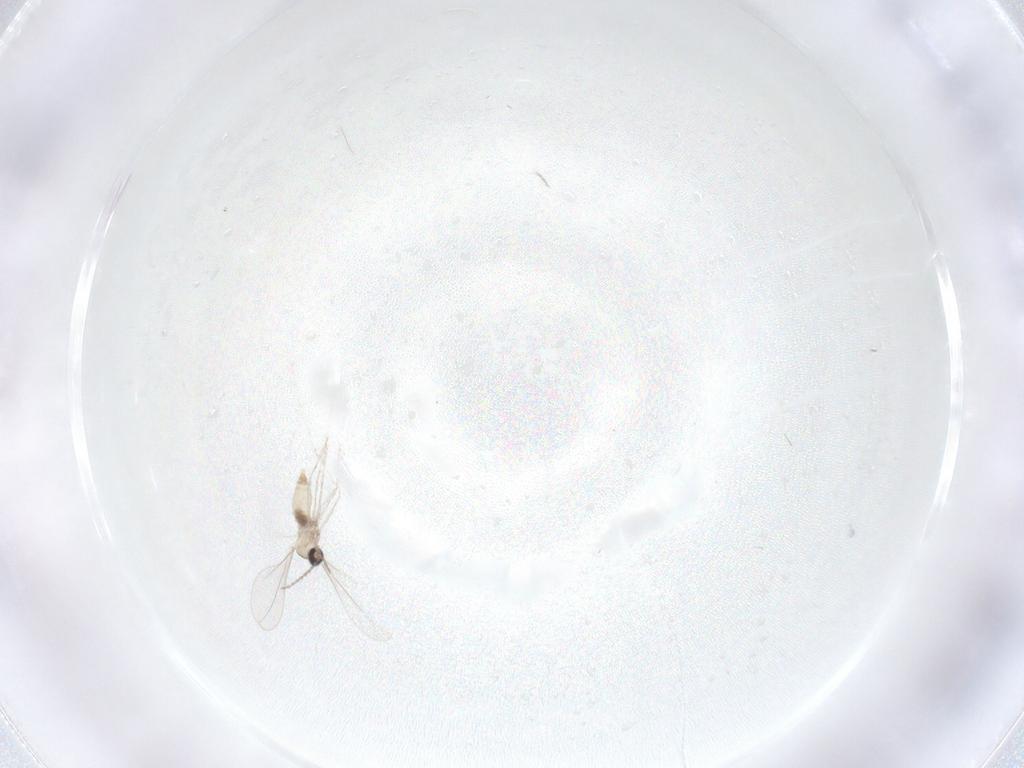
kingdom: Animalia
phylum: Arthropoda
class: Insecta
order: Diptera
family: Cecidomyiidae
